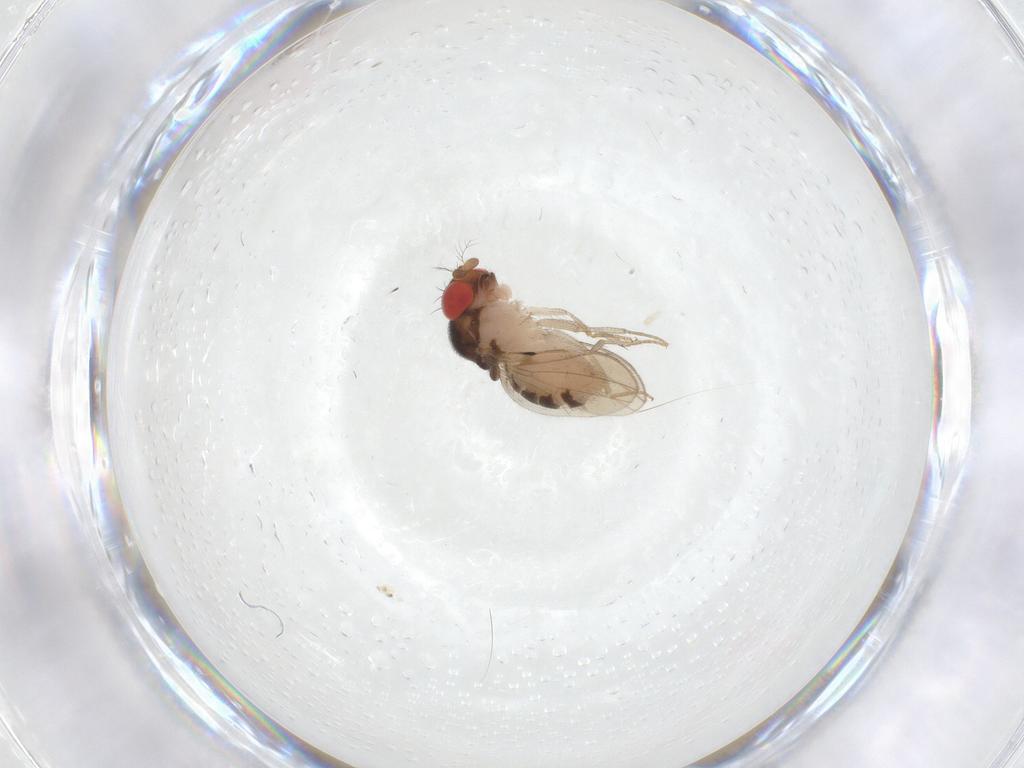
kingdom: Animalia
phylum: Arthropoda
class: Insecta
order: Diptera
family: Drosophilidae
